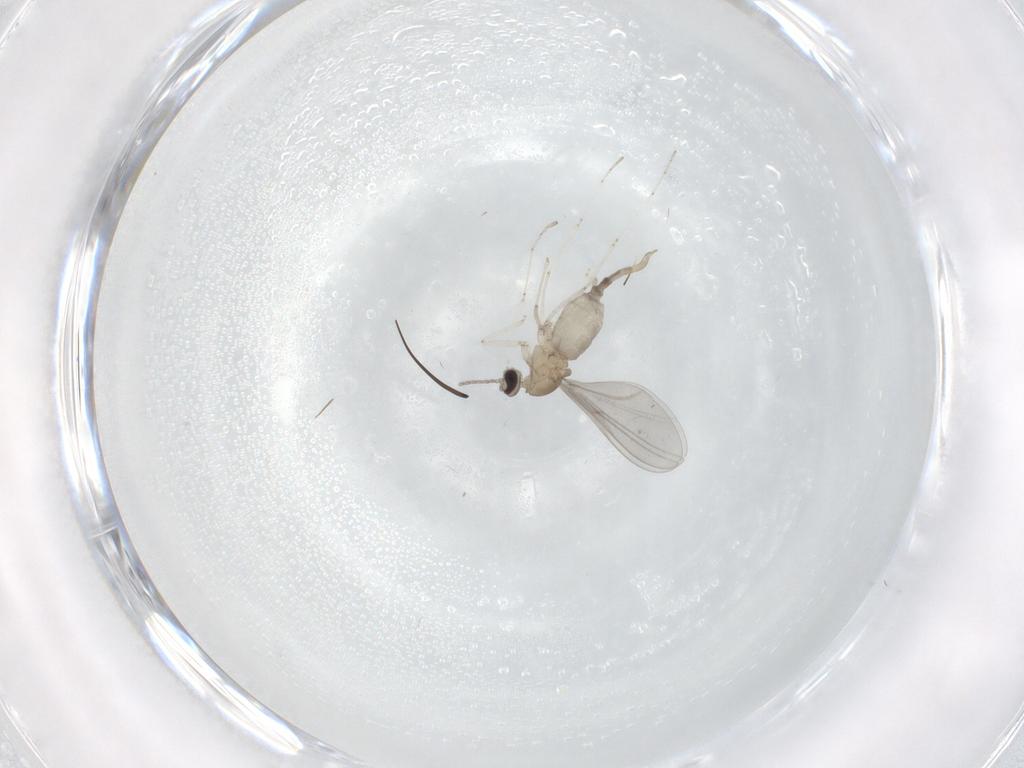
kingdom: Animalia
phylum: Arthropoda
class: Insecta
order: Diptera
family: Cecidomyiidae
